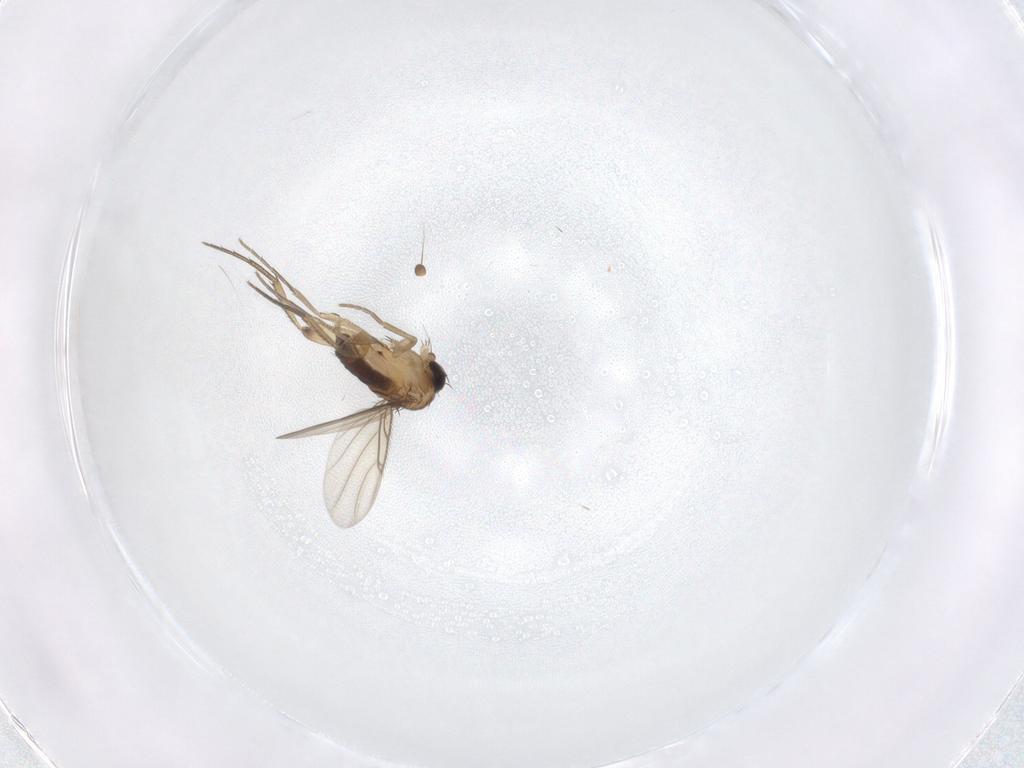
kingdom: Animalia
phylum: Arthropoda
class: Insecta
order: Diptera
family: Phoridae
